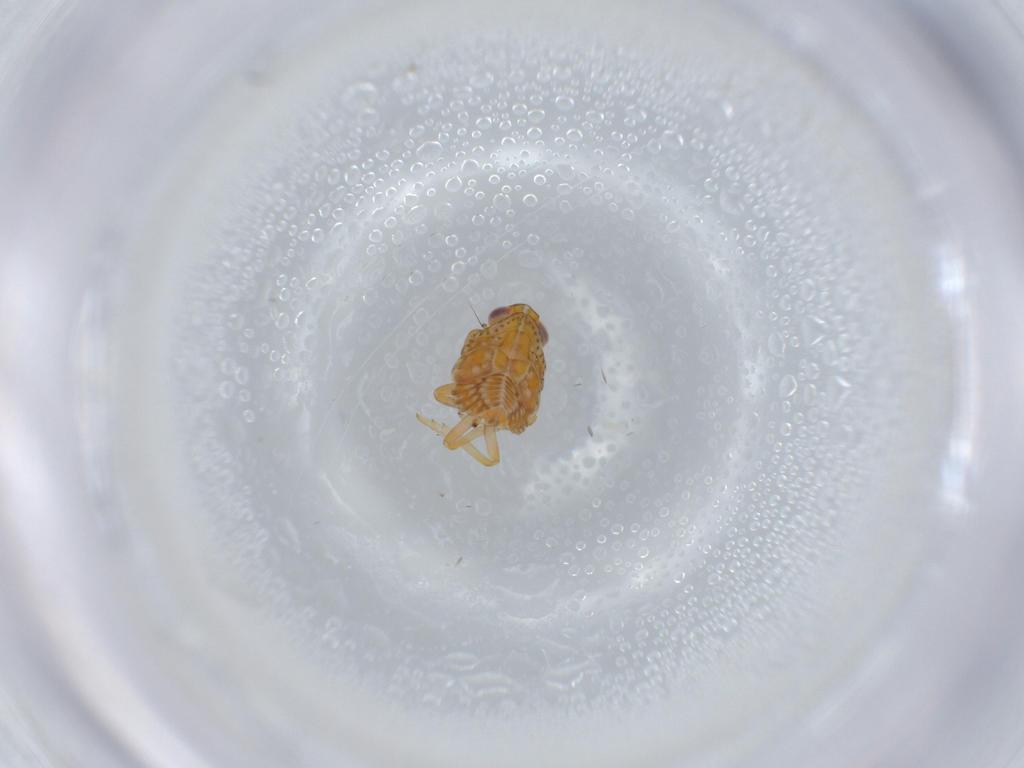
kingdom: Animalia
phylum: Arthropoda
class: Insecta
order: Hemiptera
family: Issidae
